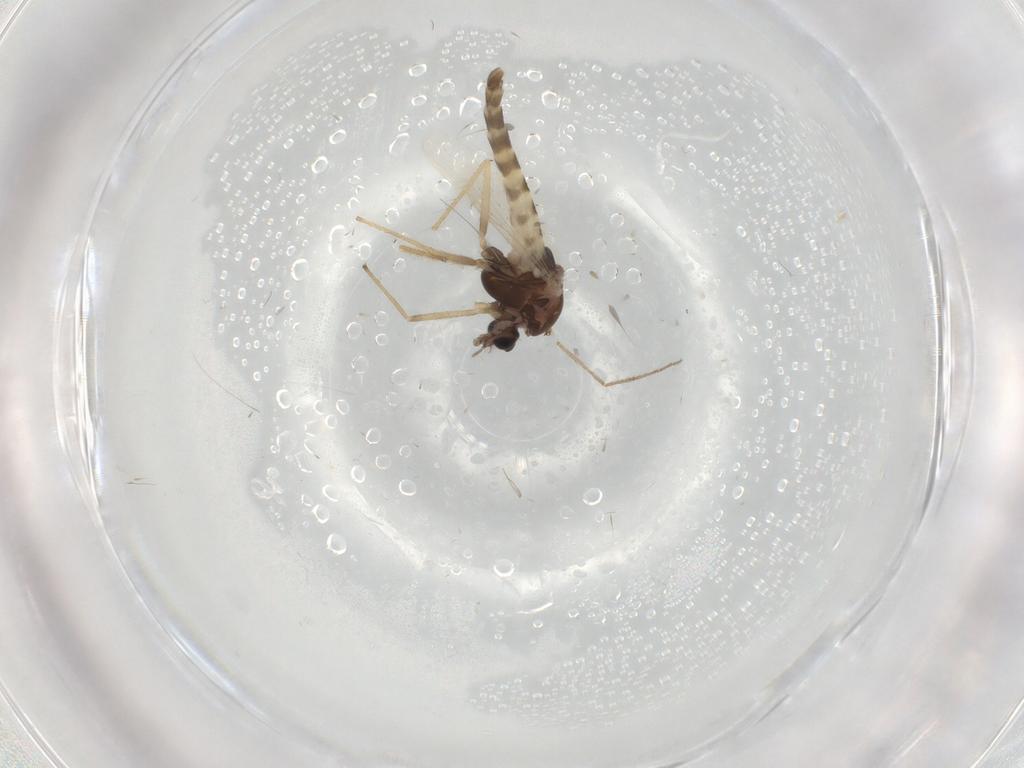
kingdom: Animalia
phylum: Arthropoda
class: Insecta
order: Diptera
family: Chironomidae
